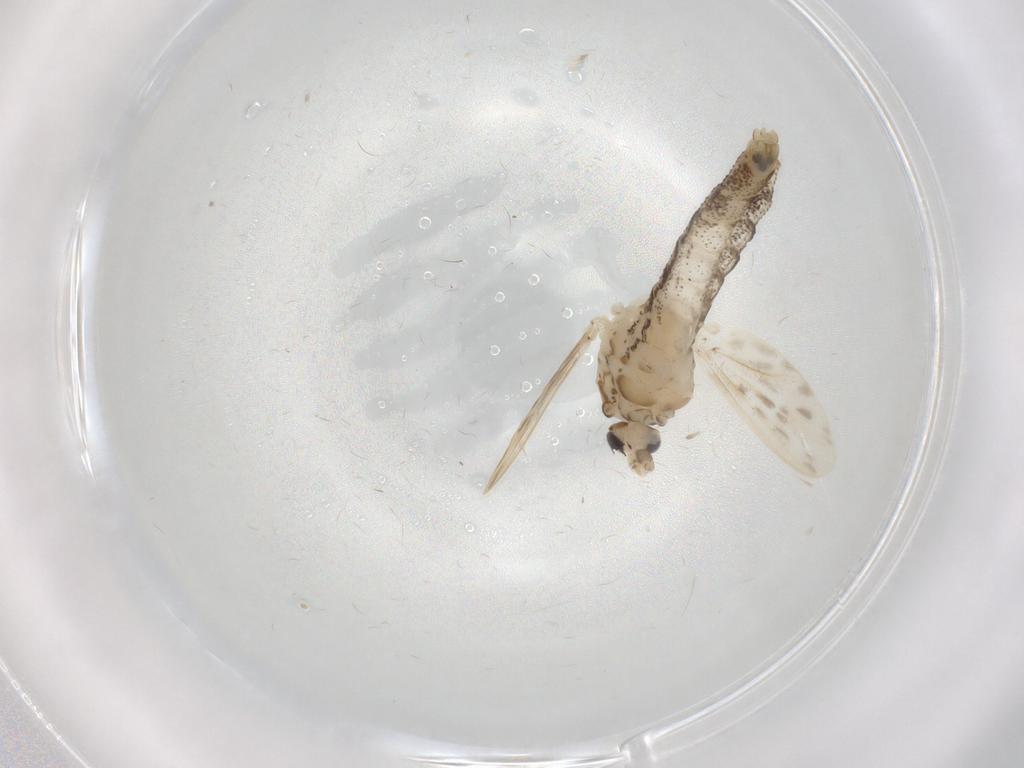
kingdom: Animalia
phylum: Arthropoda
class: Insecta
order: Diptera
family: Chaoboridae
